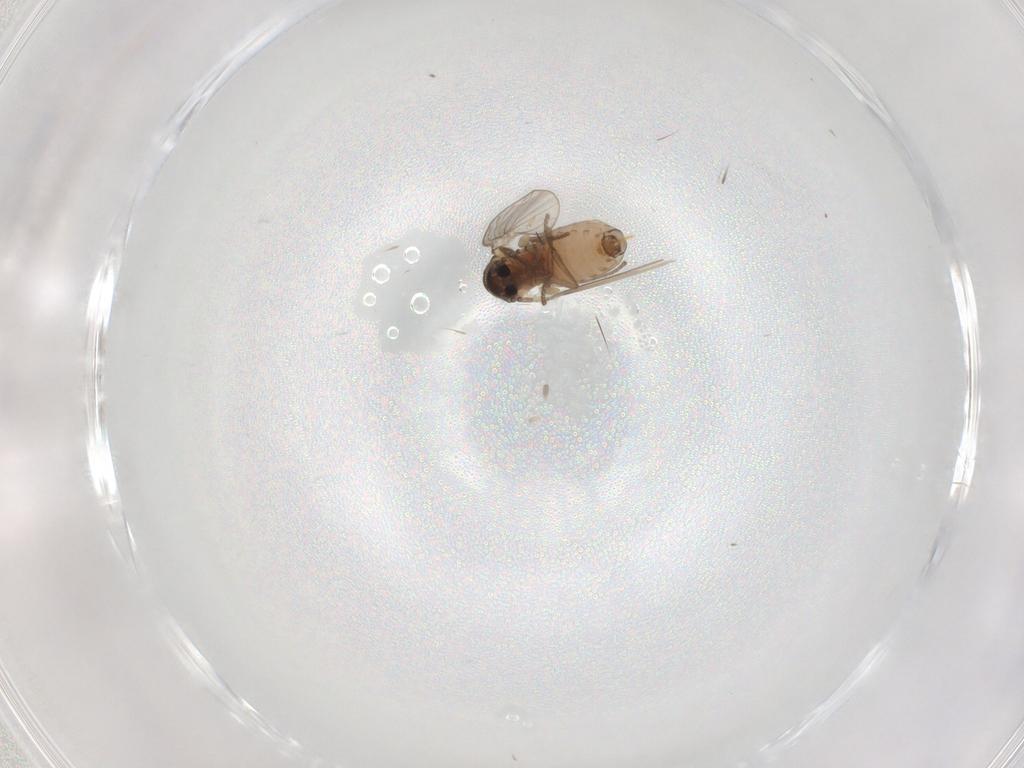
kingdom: Animalia
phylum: Arthropoda
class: Insecta
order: Diptera
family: Psychodidae
